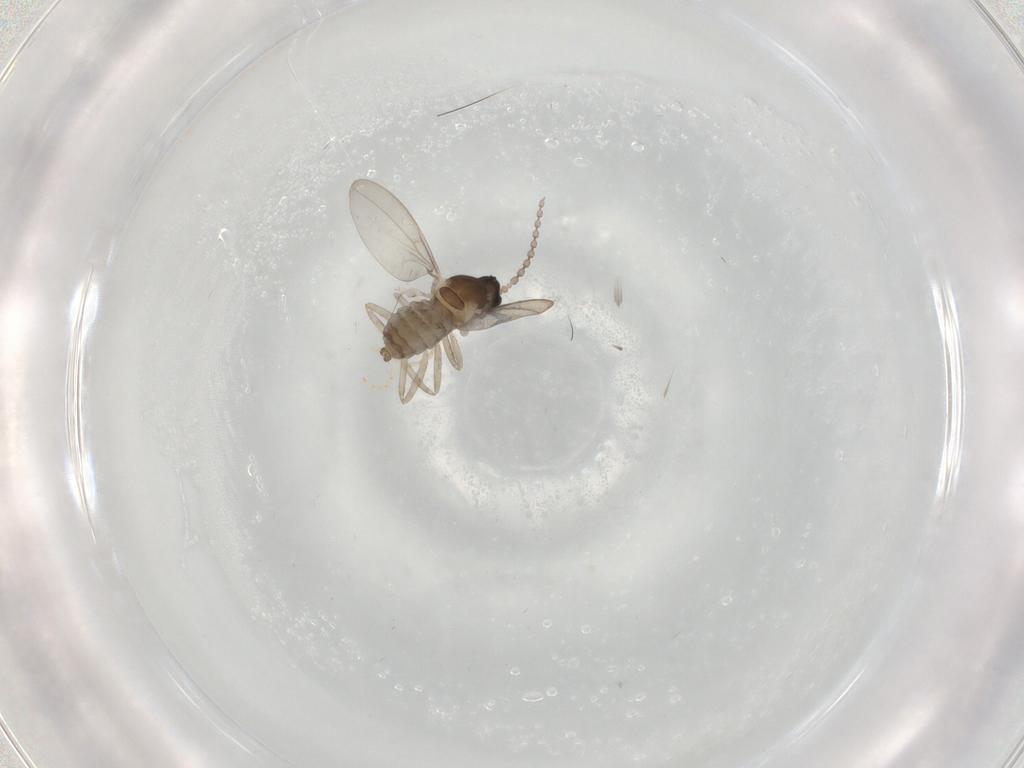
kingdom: Animalia
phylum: Arthropoda
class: Insecta
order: Diptera
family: Cecidomyiidae
